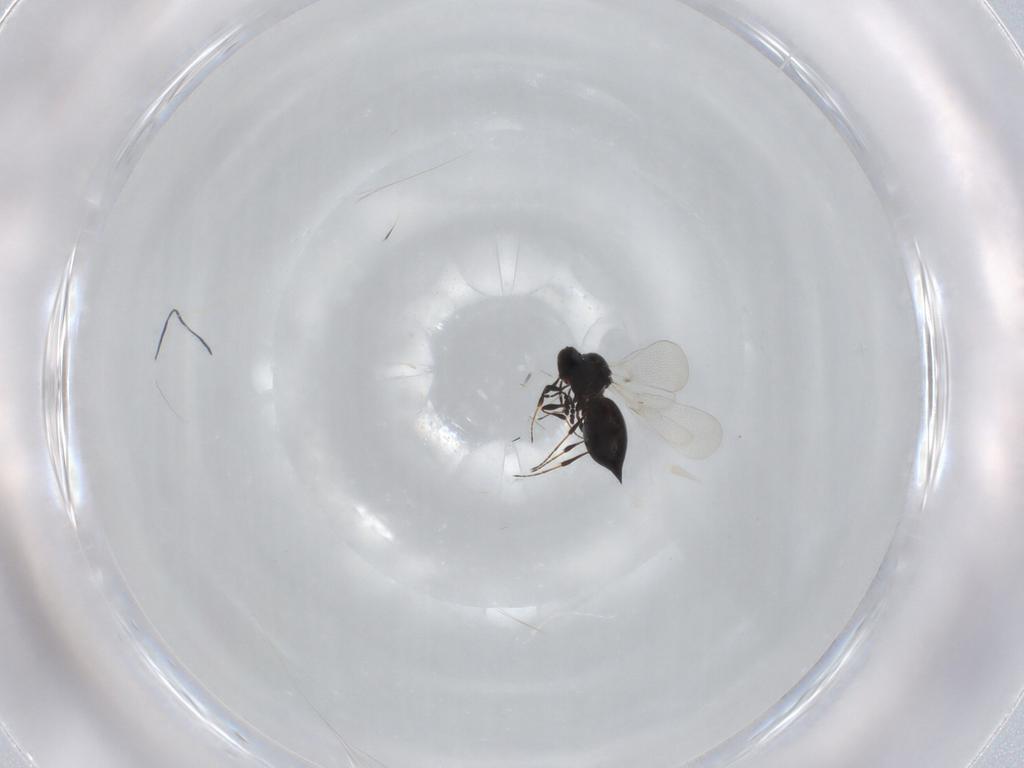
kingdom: Animalia
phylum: Arthropoda
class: Insecta
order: Hymenoptera
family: Platygastridae
